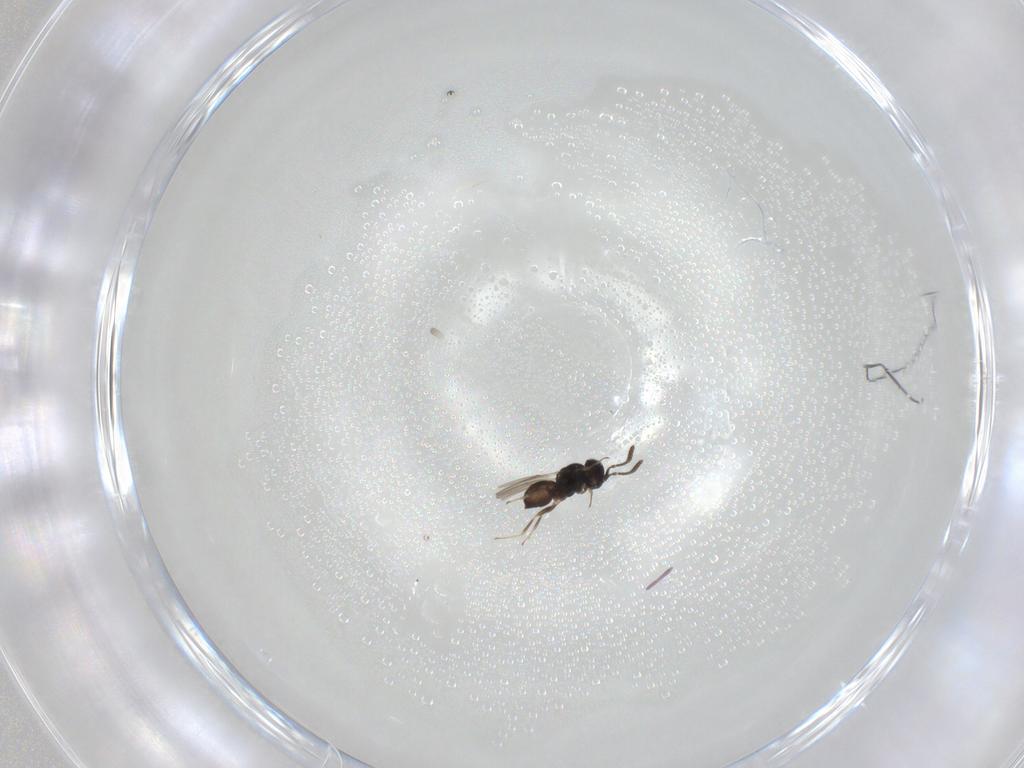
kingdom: Animalia
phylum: Arthropoda
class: Insecta
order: Hymenoptera
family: Scelionidae
